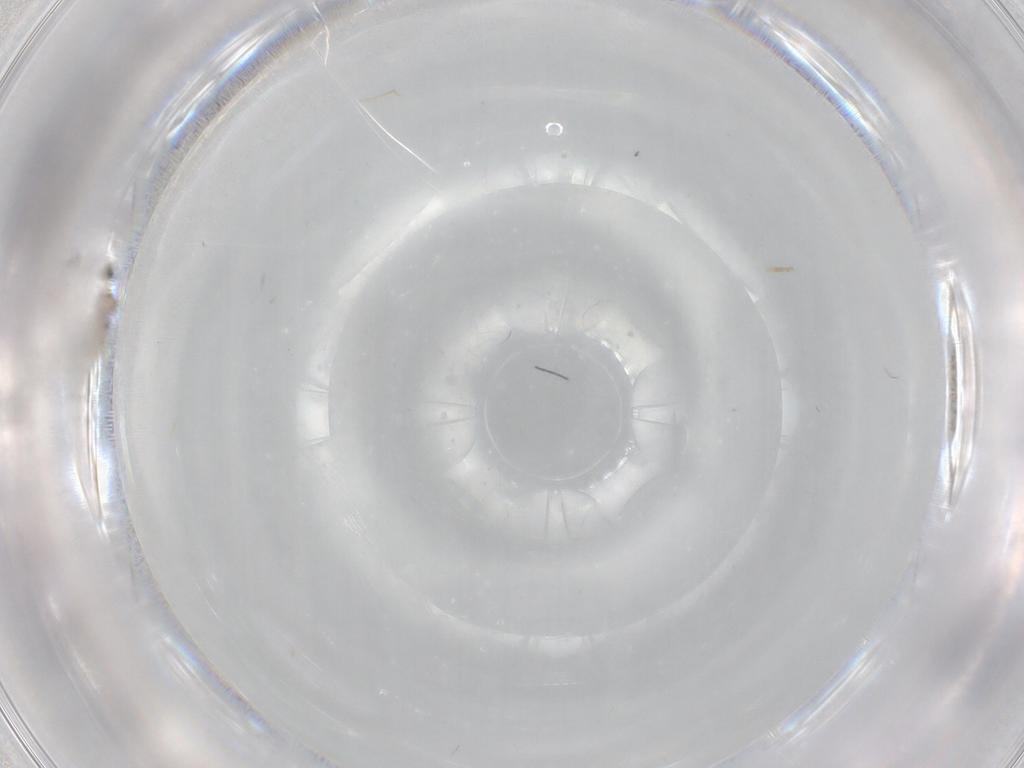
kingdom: Animalia
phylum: Arthropoda
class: Insecta
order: Diptera
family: Cecidomyiidae
